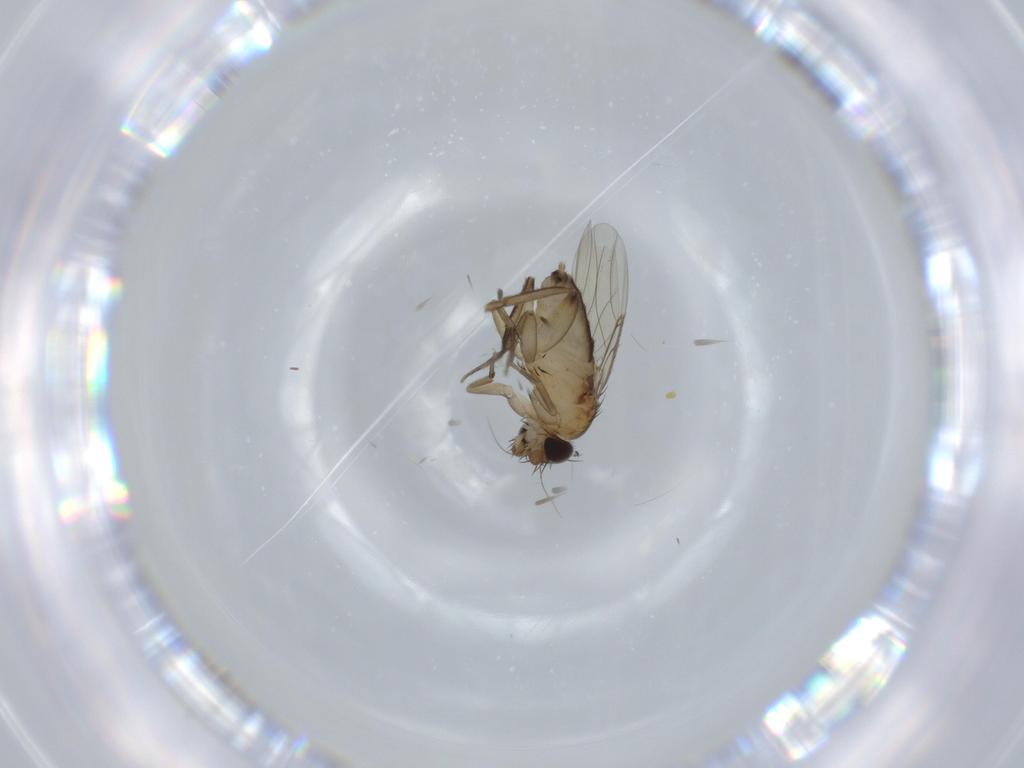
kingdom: Animalia
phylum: Arthropoda
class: Insecta
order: Diptera
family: Phoridae
